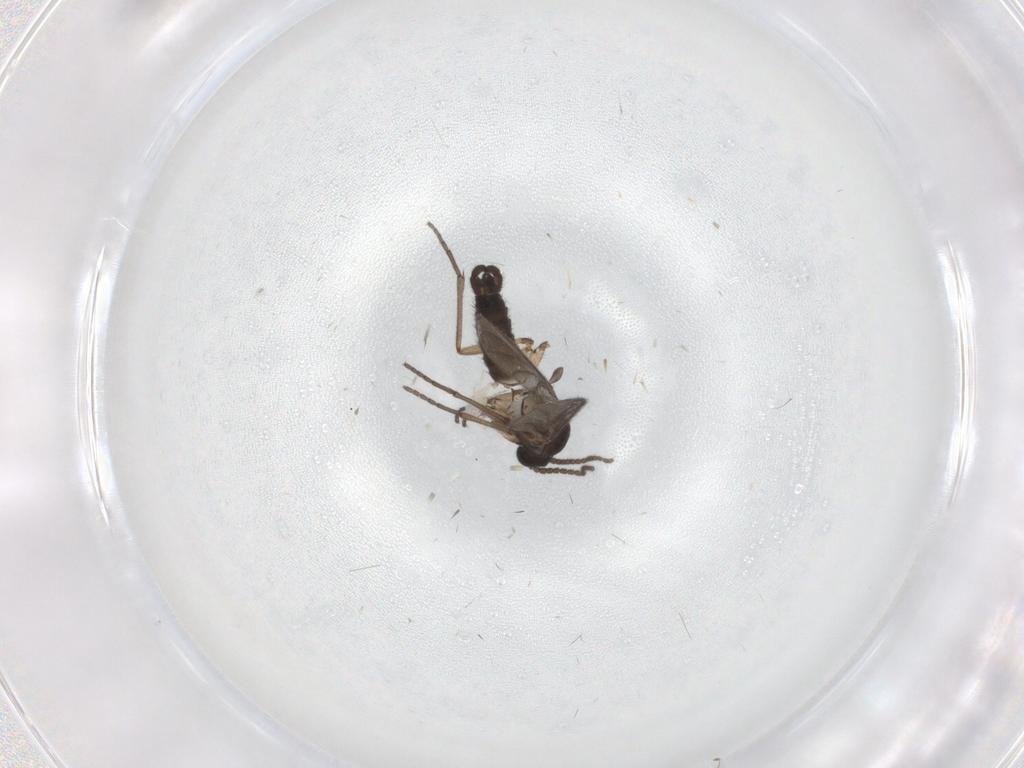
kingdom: Animalia
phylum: Arthropoda
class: Insecta
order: Diptera
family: Sciaridae
